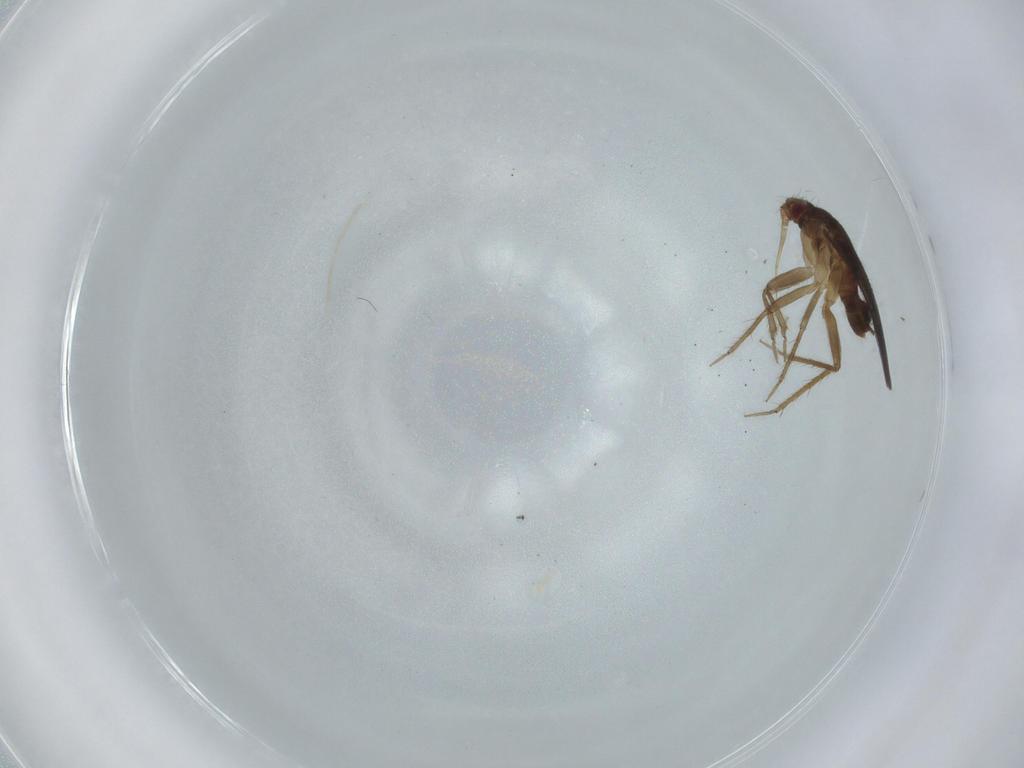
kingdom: Animalia
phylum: Arthropoda
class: Insecta
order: Hemiptera
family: Ceratocombidae
